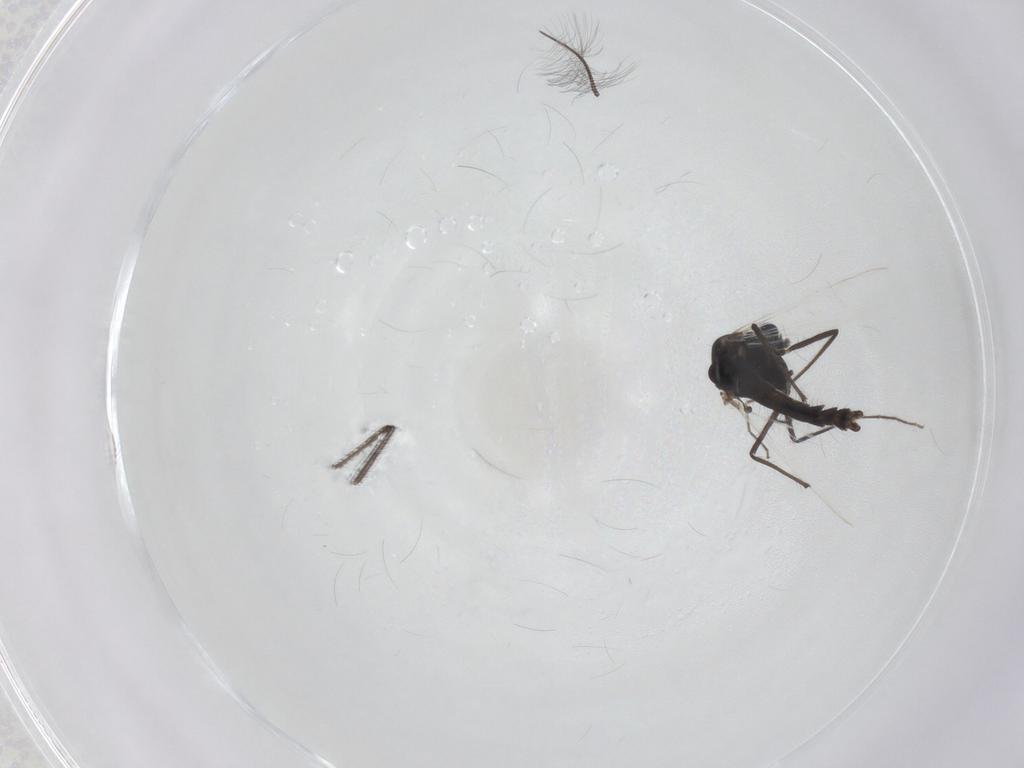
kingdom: Animalia
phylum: Arthropoda
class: Insecta
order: Diptera
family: Chironomidae
